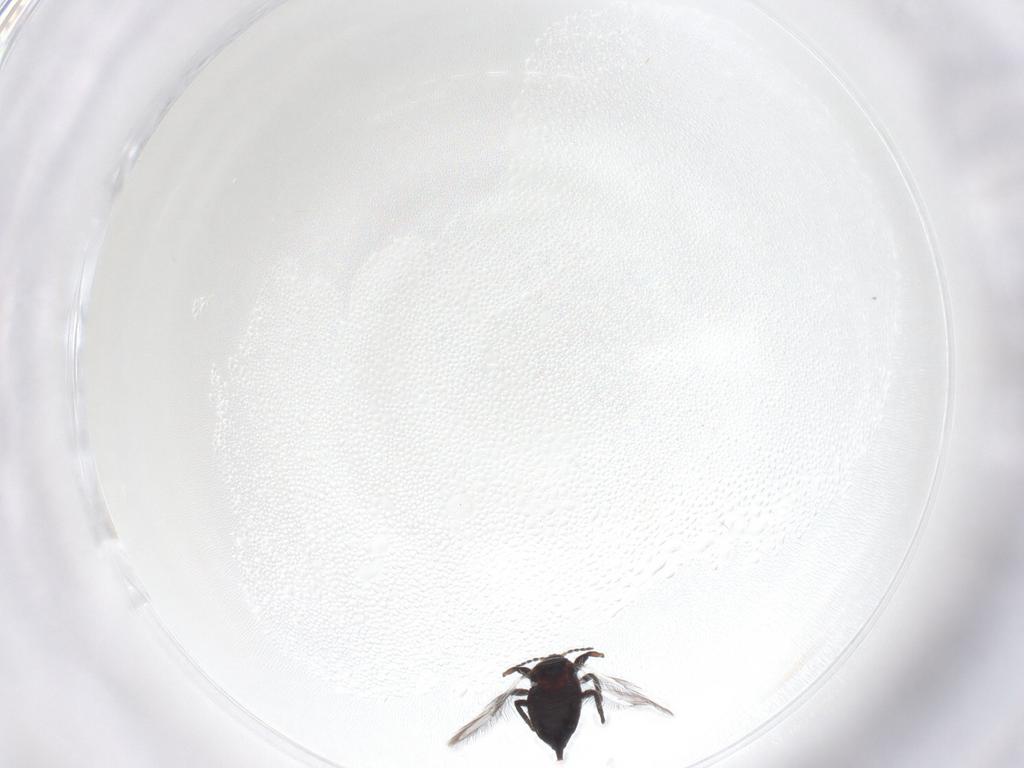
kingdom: Animalia
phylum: Arthropoda
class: Insecta
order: Thysanoptera
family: Phlaeothripidae
